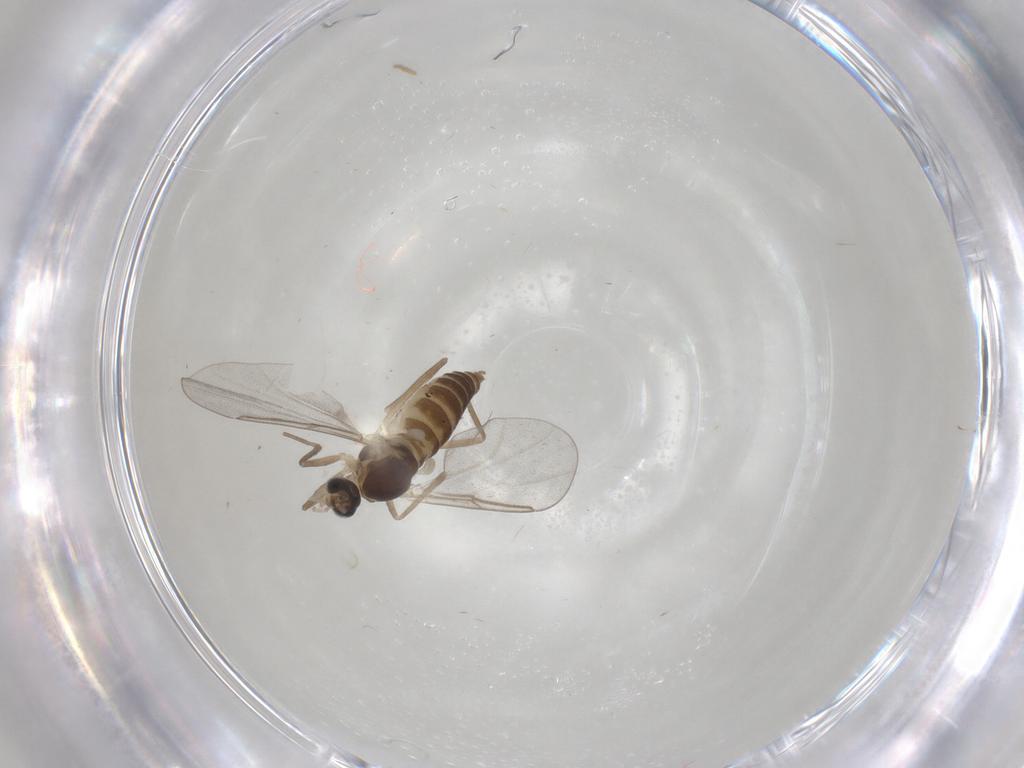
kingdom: Animalia
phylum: Arthropoda
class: Insecta
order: Diptera
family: Cecidomyiidae
